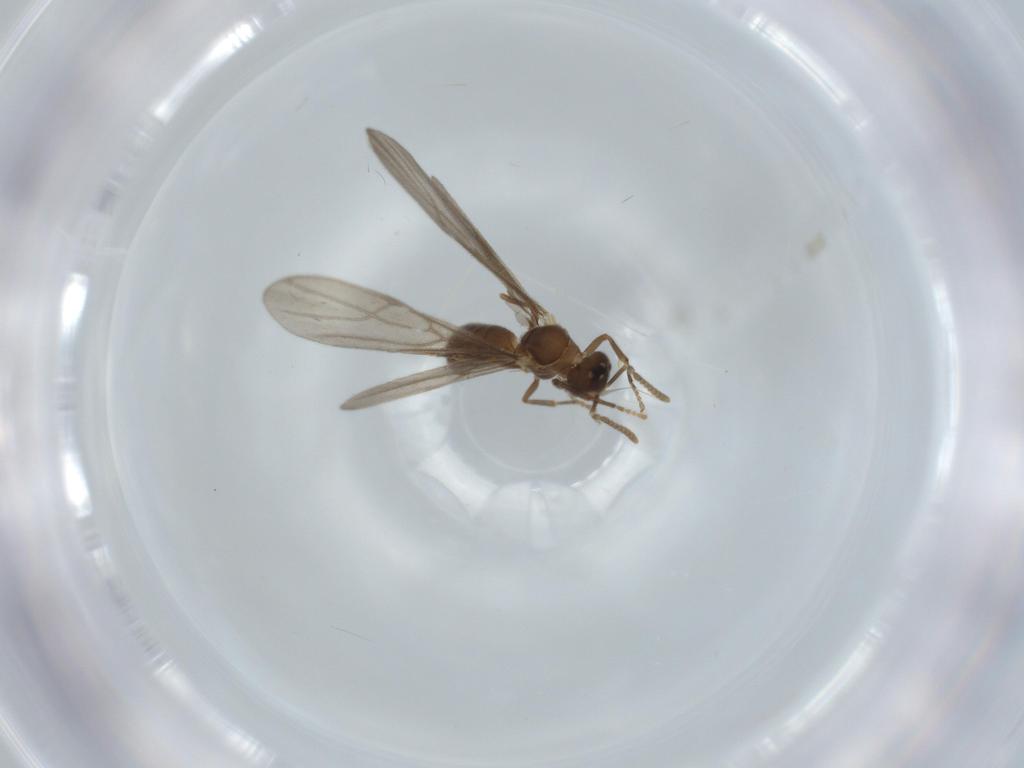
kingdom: Animalia
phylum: Arthropoda
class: Insecta
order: Hymenoptera
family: Formicidae
